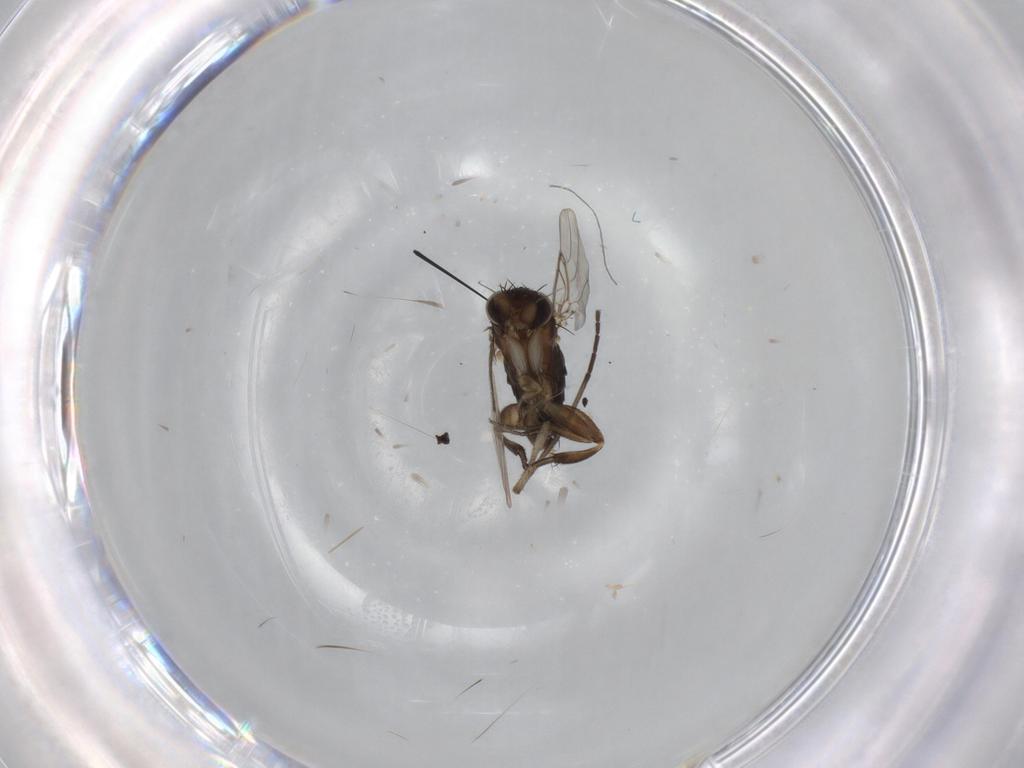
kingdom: Animalia
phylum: Arthropoda
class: Insecta
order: Diptera
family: Phoridae
